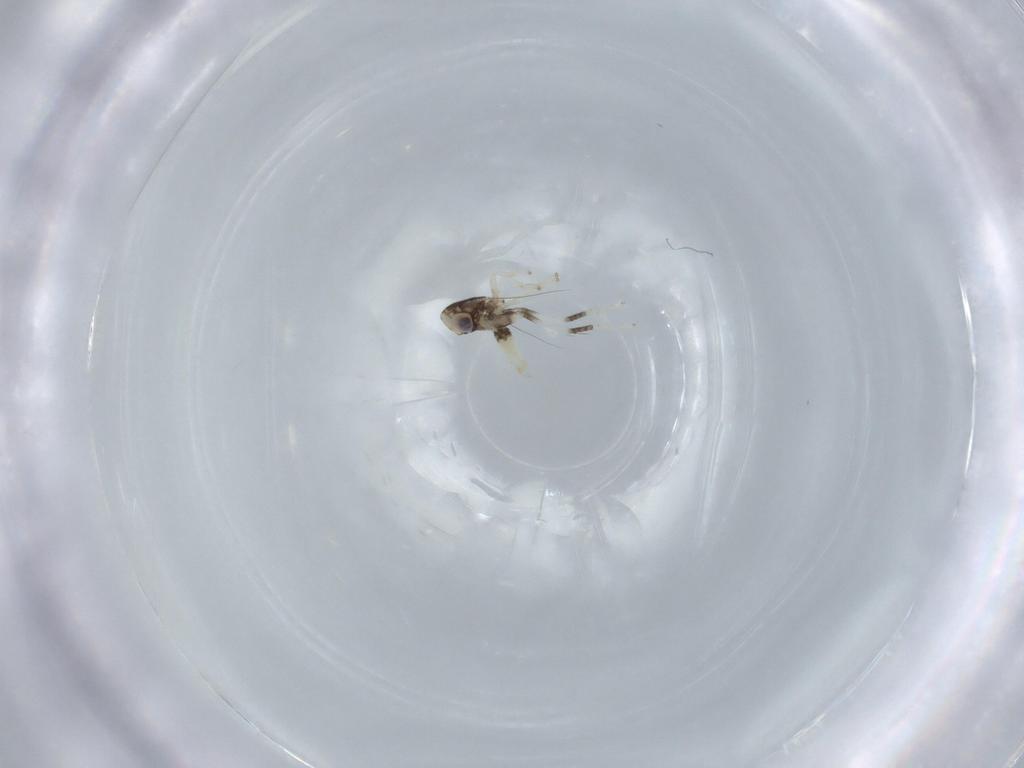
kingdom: Animalia
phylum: Arthropoda
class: Insecta
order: Hemiptera
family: Cicadellidae
